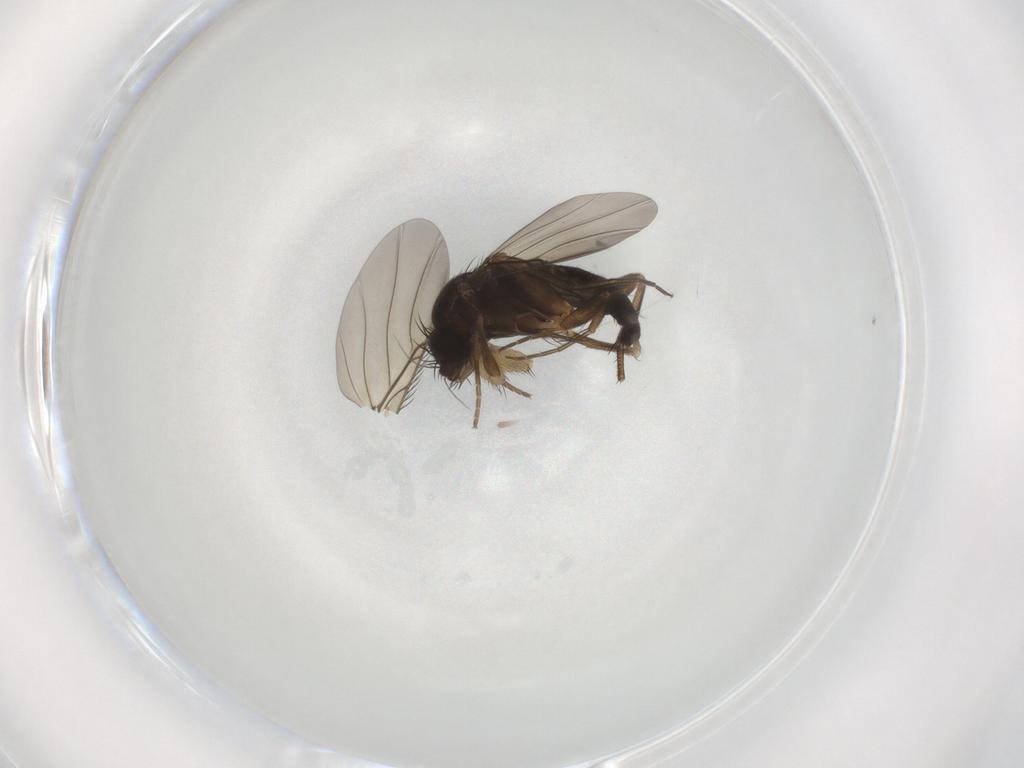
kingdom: Animalia
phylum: Arthropoda
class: Insecta
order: Diptera
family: Phoridae
